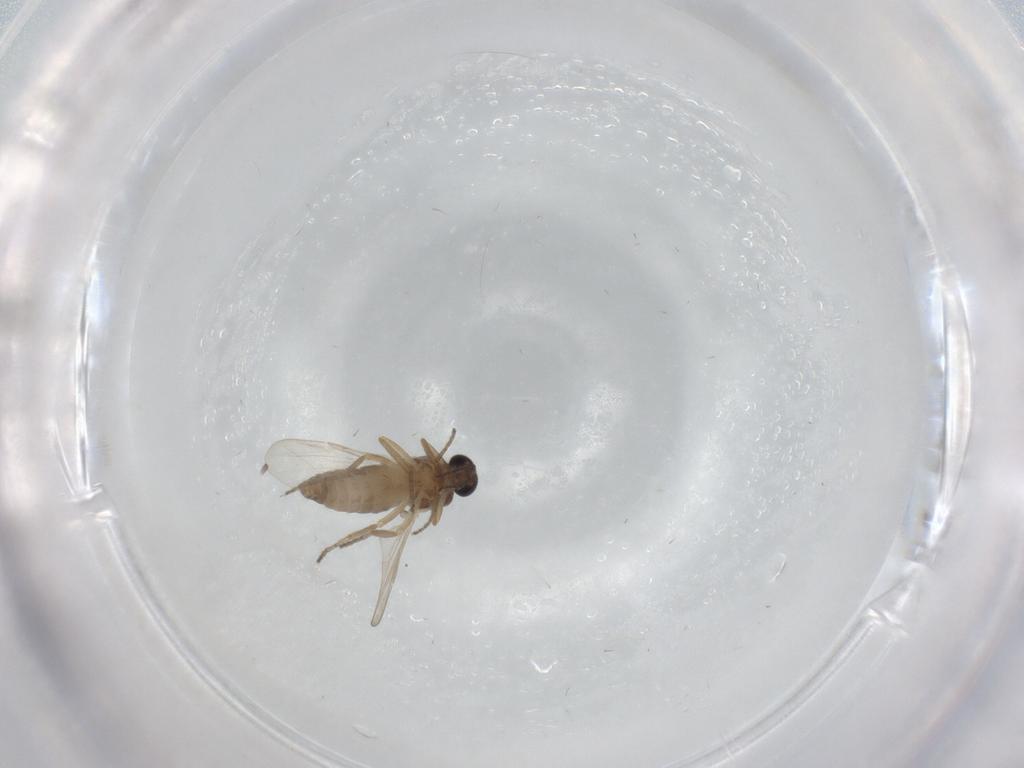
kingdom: Animalia
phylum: Arthropoda
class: Insecta
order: Diptera
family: Ceratopogonidae
